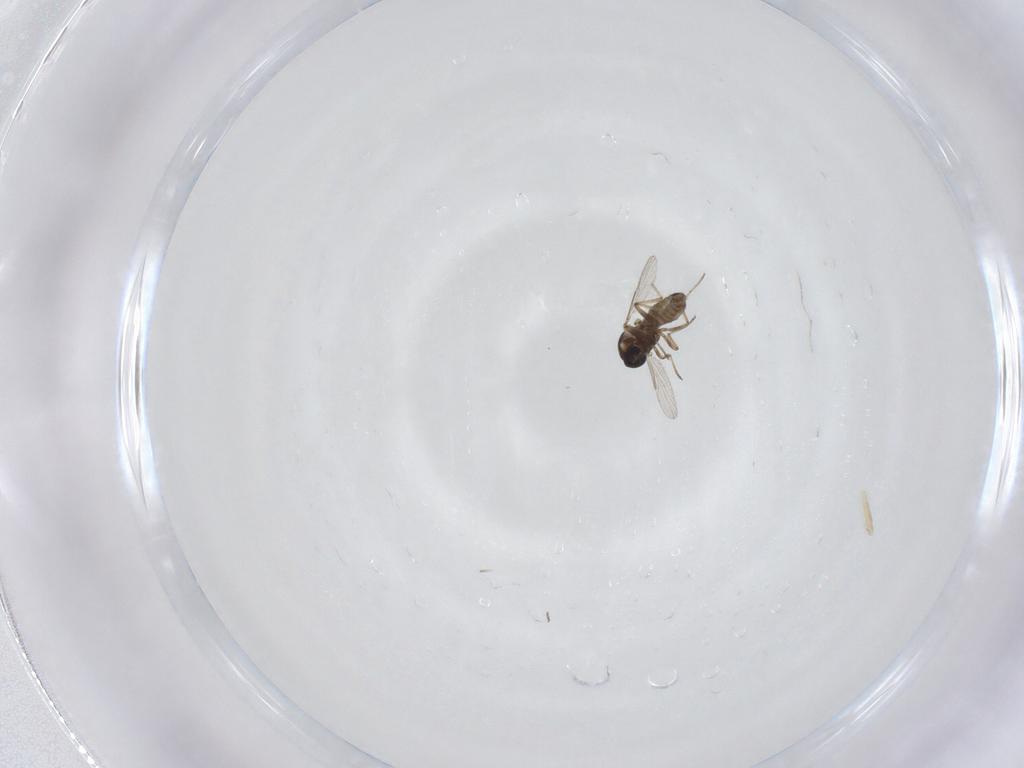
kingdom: Animalia
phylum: Arthropoda
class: Insecta
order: Diptera
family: Ceratopogonidae
